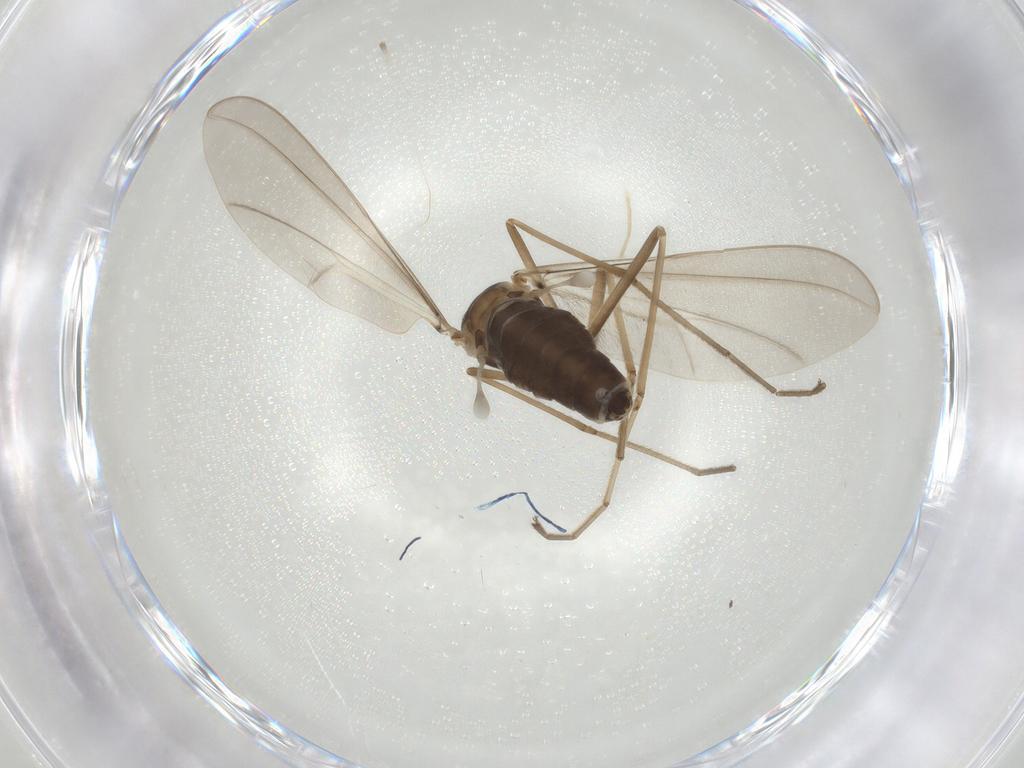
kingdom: Animalia
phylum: Arthropoda
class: Insecta
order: Diptera
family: Cecidomyiidae
